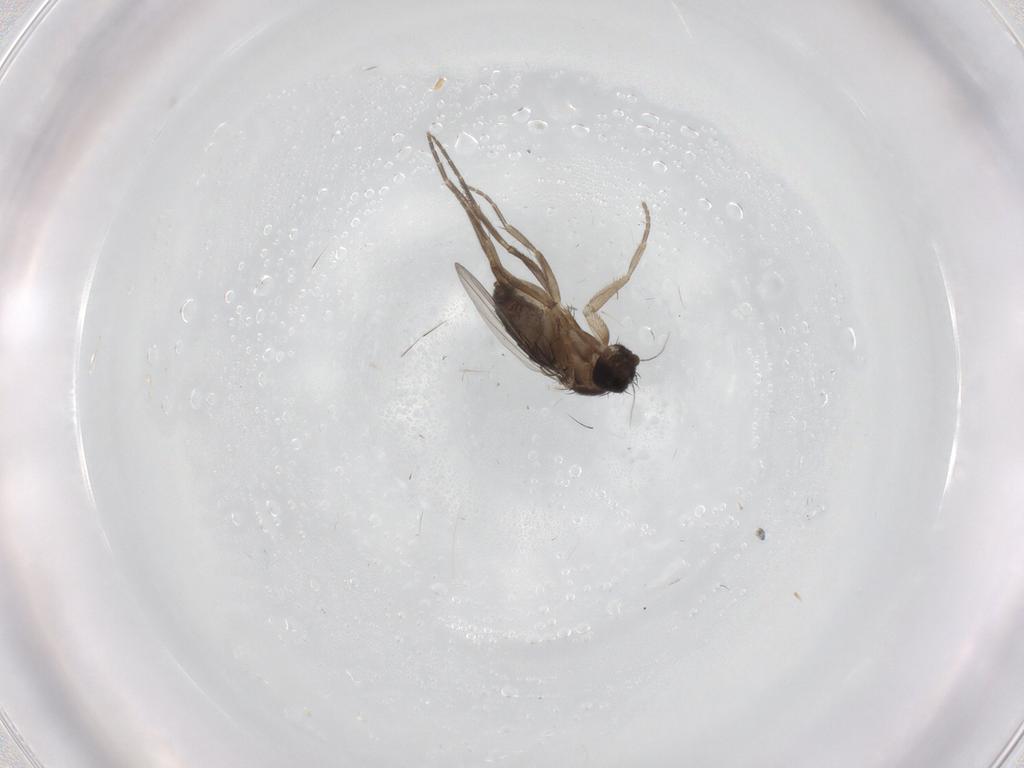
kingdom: Animalia
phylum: Arthropoda
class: Insecta
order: Diptera
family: Phoridae
